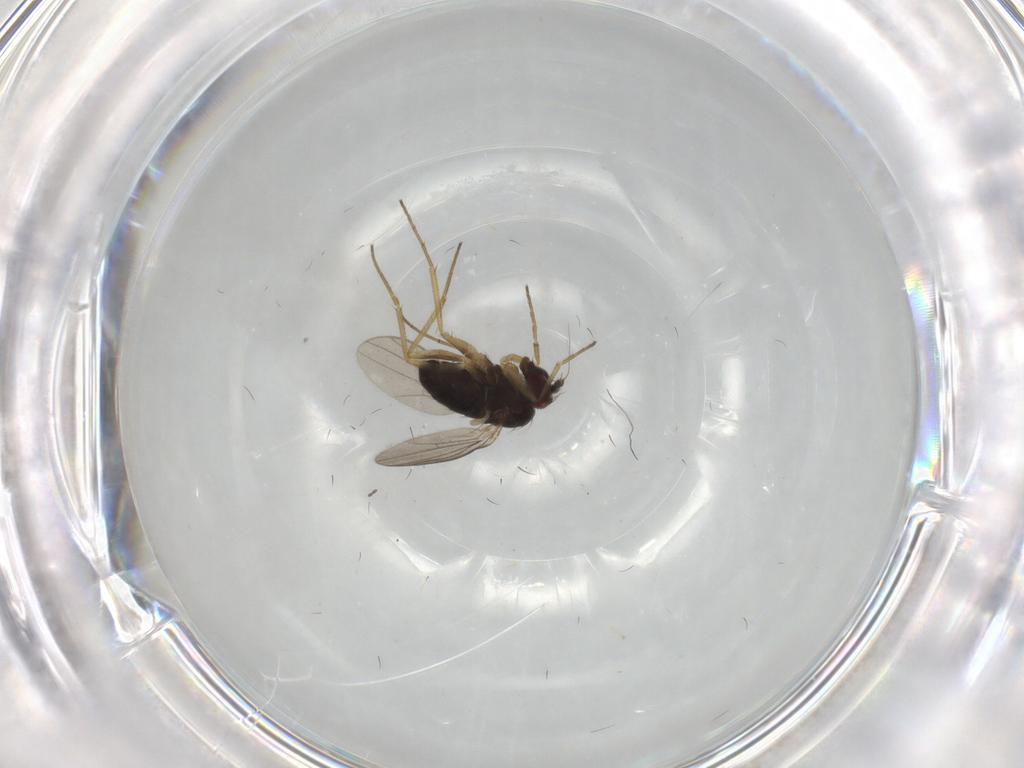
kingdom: Animalia
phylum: Arthropoda
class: Insecta
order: Diptera
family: Dolichopodidae
